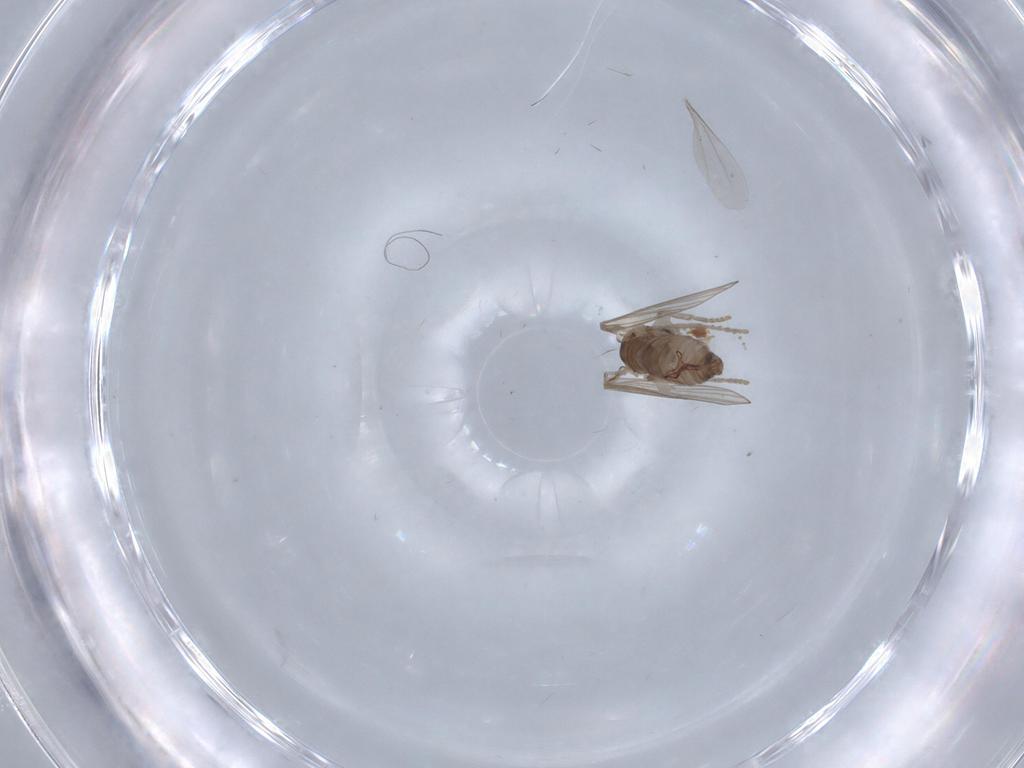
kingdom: Animalia
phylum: Arthropoda
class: Insecta
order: Diptera
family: Psychodidae
